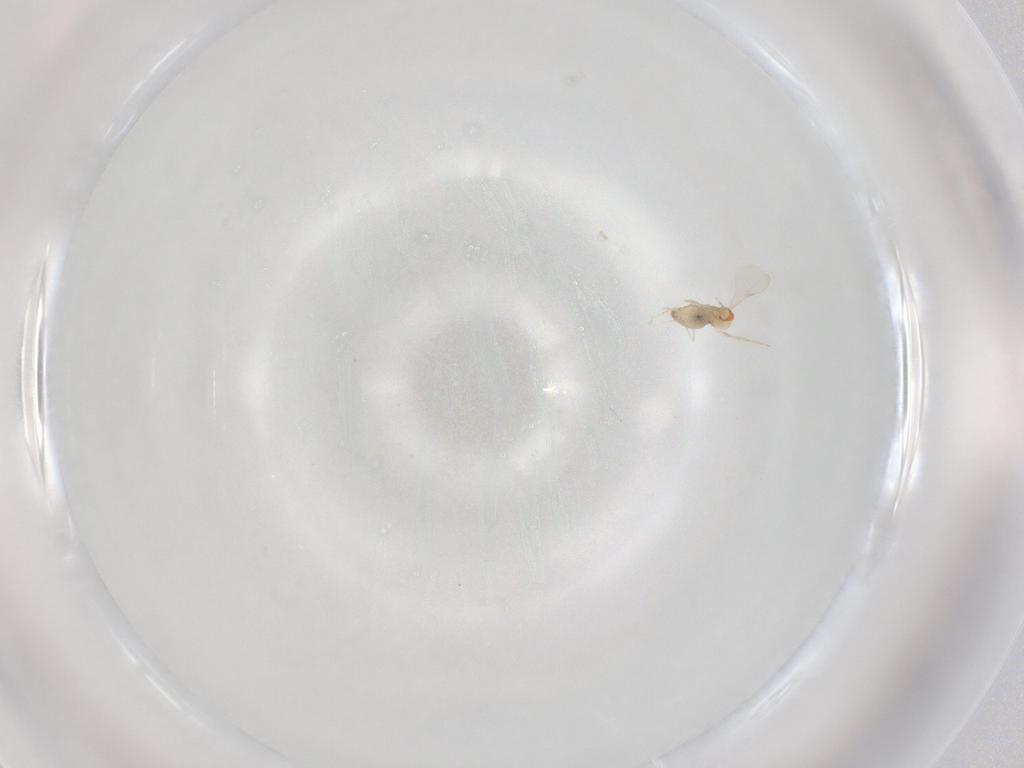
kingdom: Animalia
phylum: Arthropoda
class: Insecta
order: Diptera
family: Cecidomyiidae
